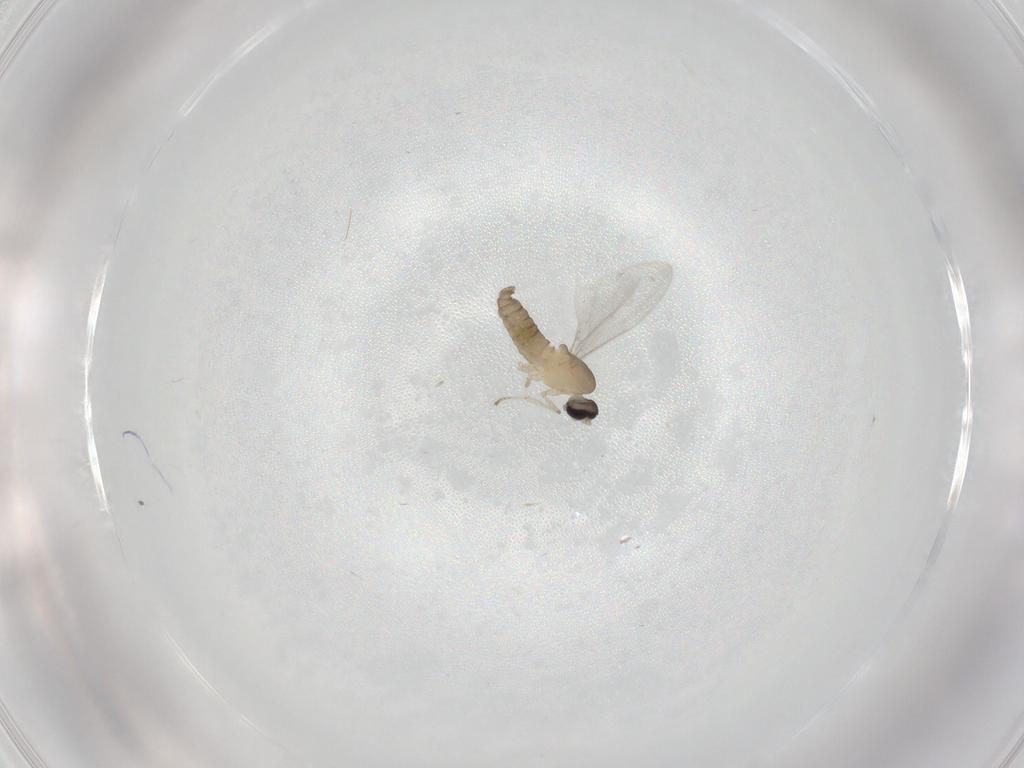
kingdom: Animalia
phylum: Arthropoda
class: Insecta
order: Diptera
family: Cecidomyiidae
